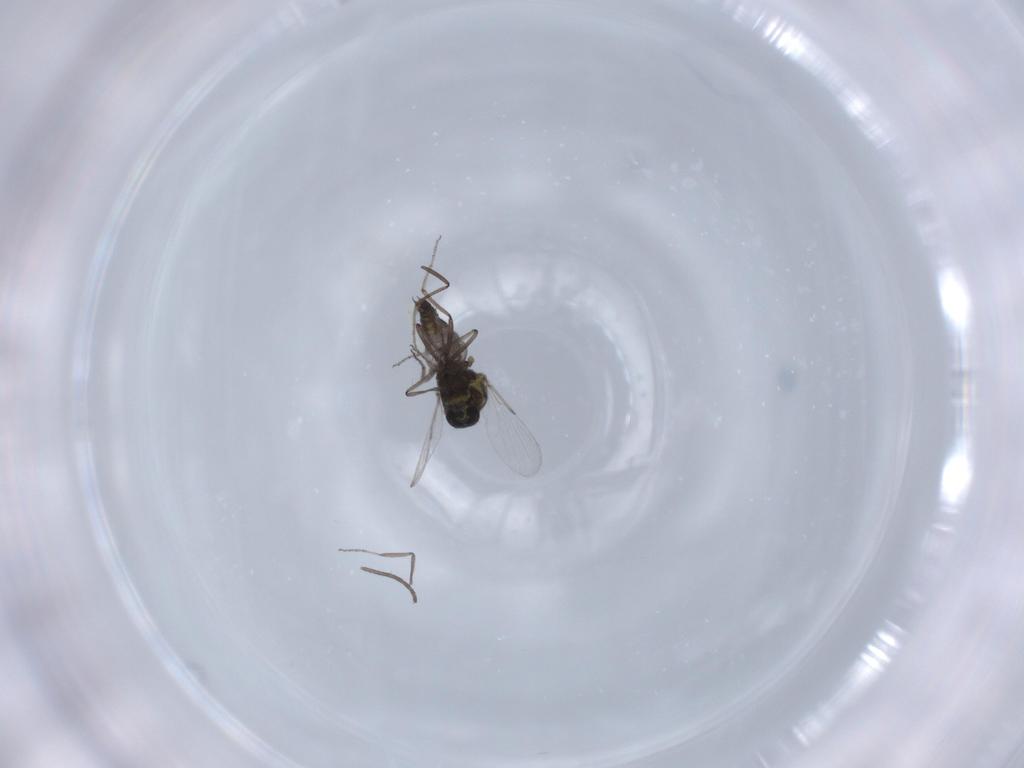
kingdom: Animalia
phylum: Arthropoda
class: Insecta
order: Diptera
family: Ceratopogonidae
